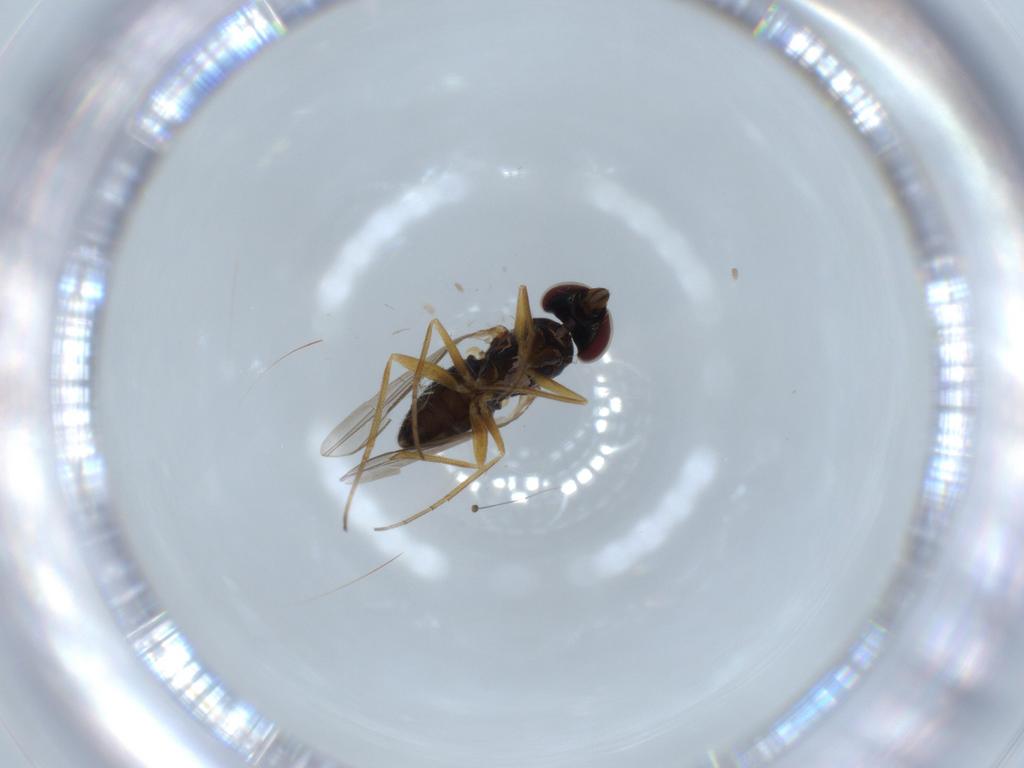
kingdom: Animalia
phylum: Arthropoda
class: Insecta
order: Diptera
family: Dolichopodidae
